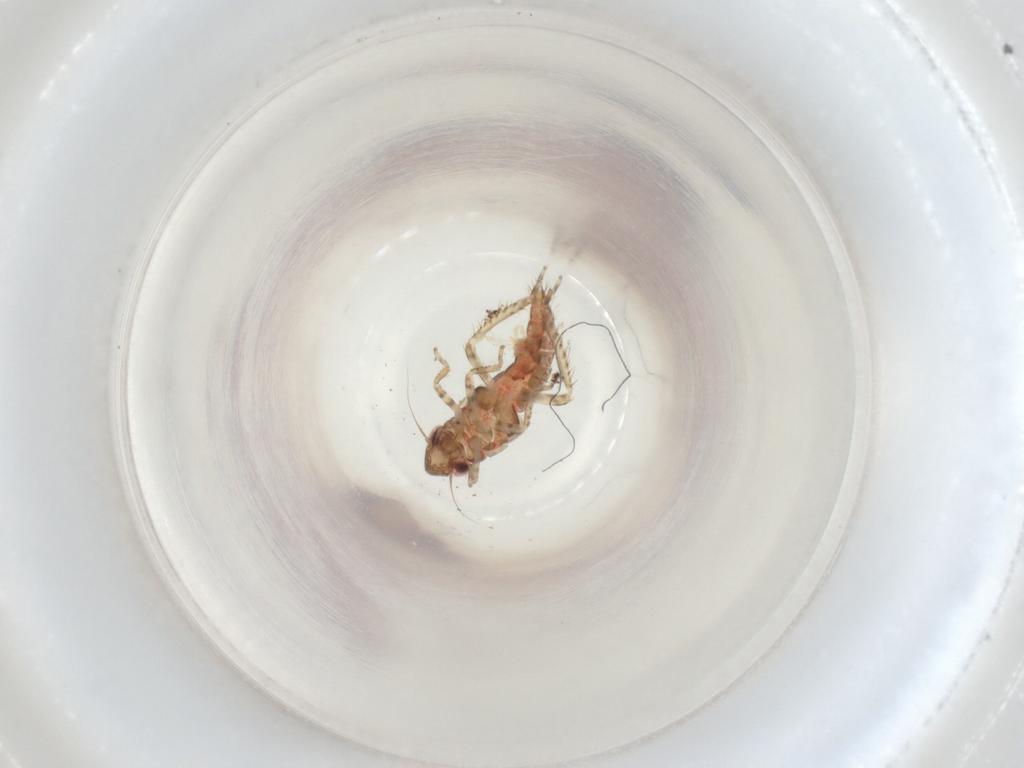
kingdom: Animalia
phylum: Arthropoda
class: Insecta
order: Hemiptera
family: Cicadellidae
